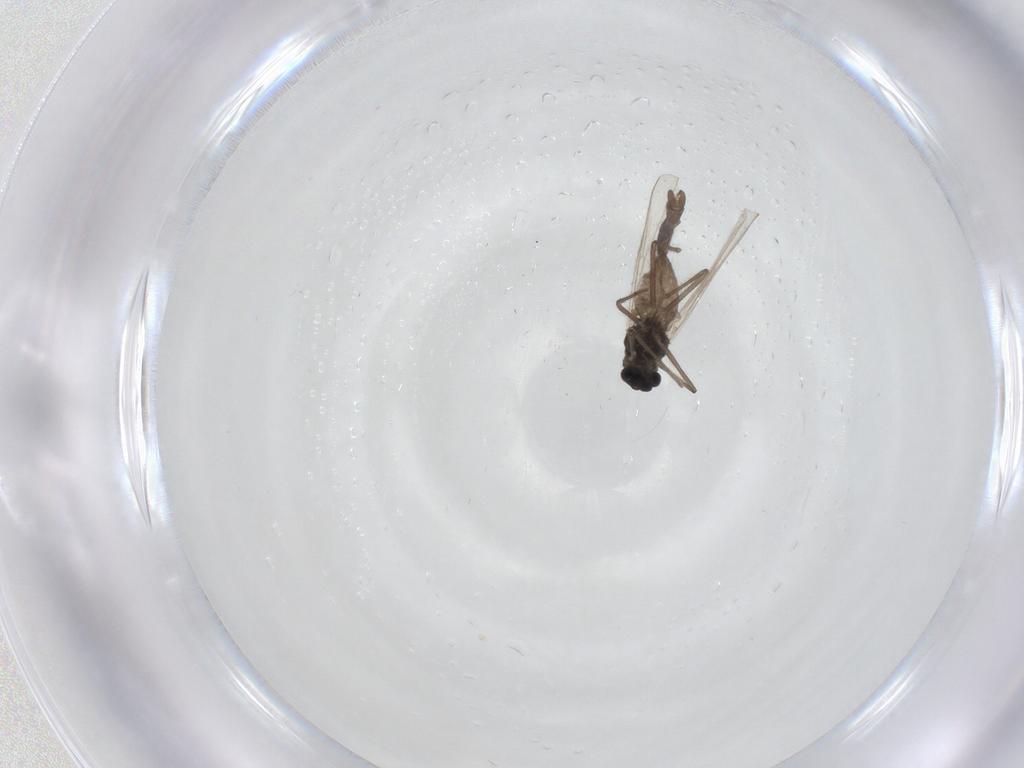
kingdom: Animalia
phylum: Arthropoda
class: Insecta
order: Diptera
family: Chironomidae
